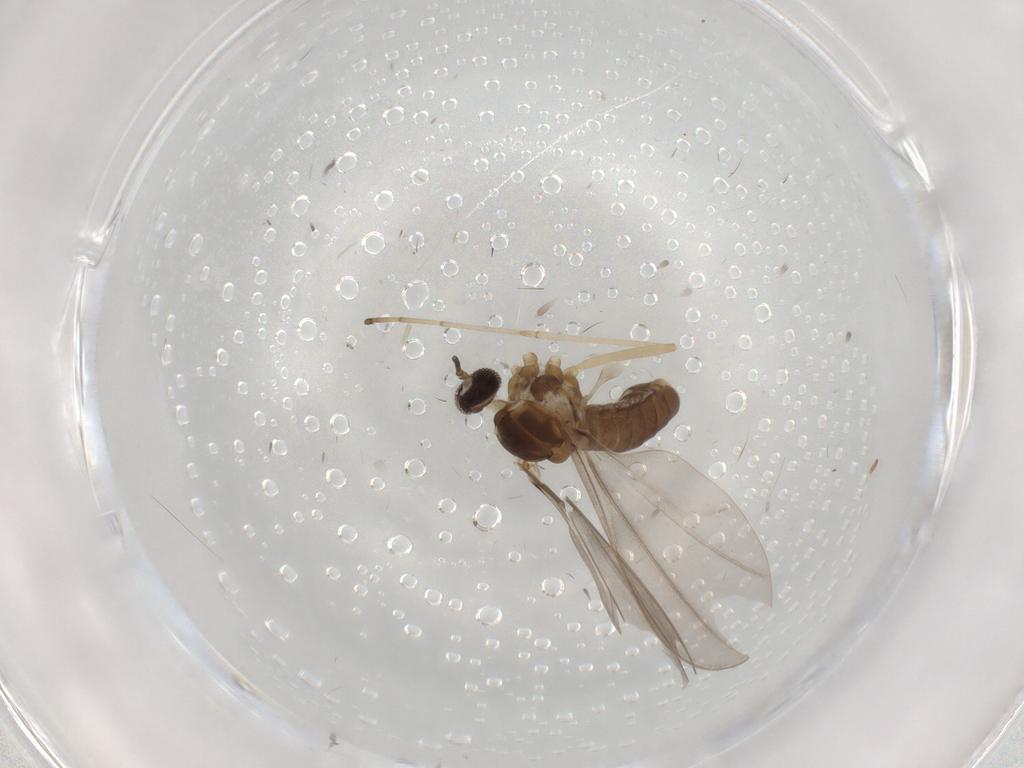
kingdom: Animalia
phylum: Arthropoda
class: Insecta
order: Diptera
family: Cecidomyiidae
